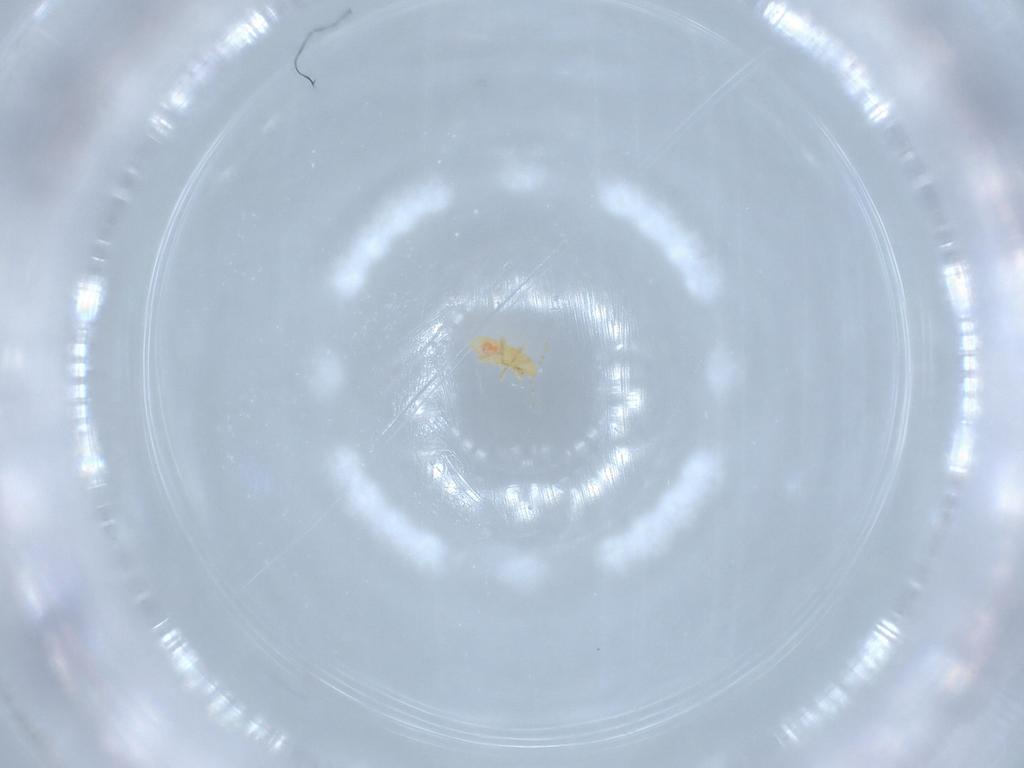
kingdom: Animalia
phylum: Arthropoda
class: Insecta
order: Hemiptera
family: Anthocoridae
